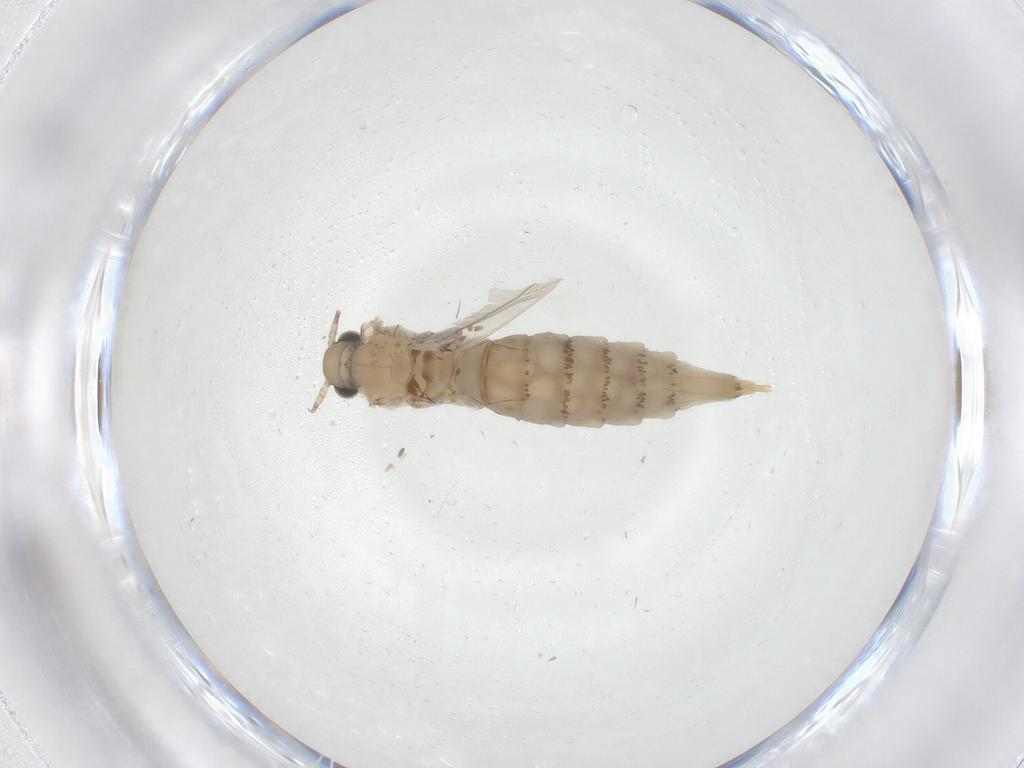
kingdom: Animalia
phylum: Arthropoda
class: Insecta
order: Lepidoptera
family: Nymphalidae
